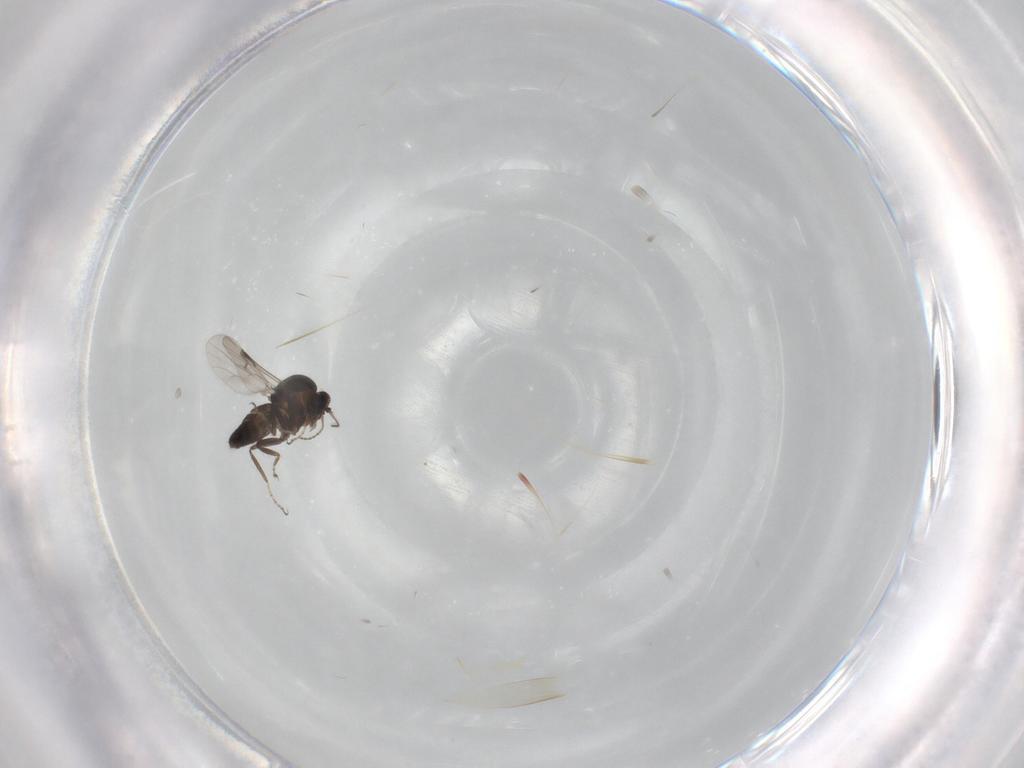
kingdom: Animalia
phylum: Arthropoda
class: Insecta
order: Diptera
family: Ceratopogonidae
